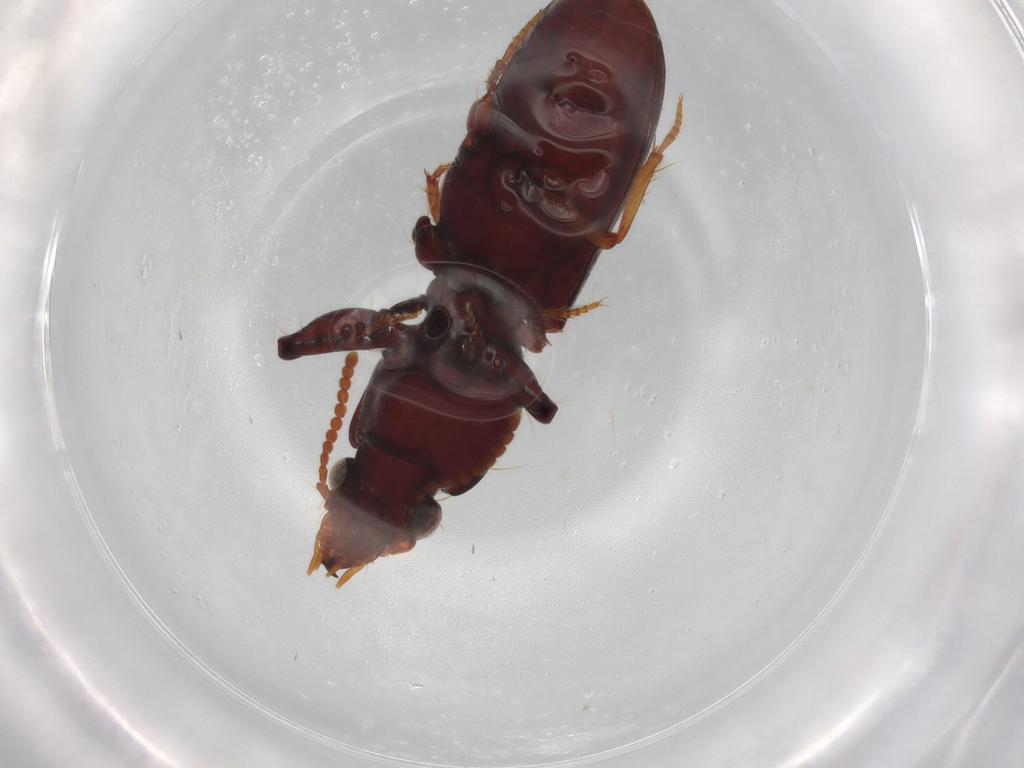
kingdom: Animalia
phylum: Arthropoda
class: Insecta
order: Coleoptera
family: Carabidae
